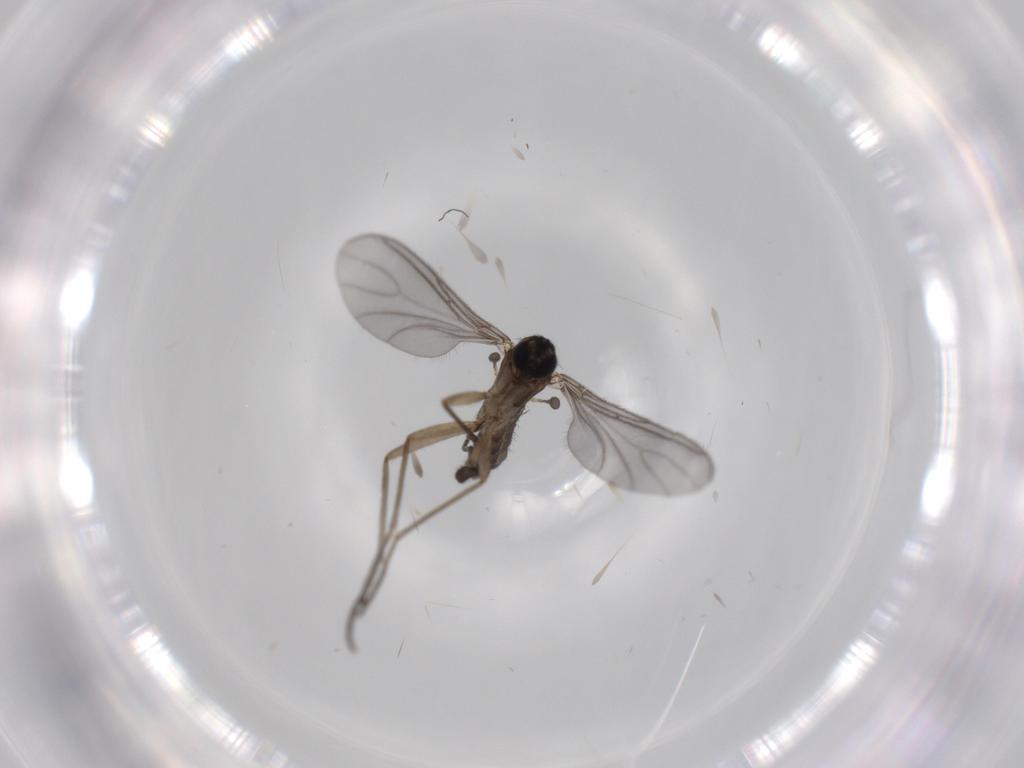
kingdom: Animalia
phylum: Arthropoda
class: Insecta
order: Diptera
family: Sciaridae
